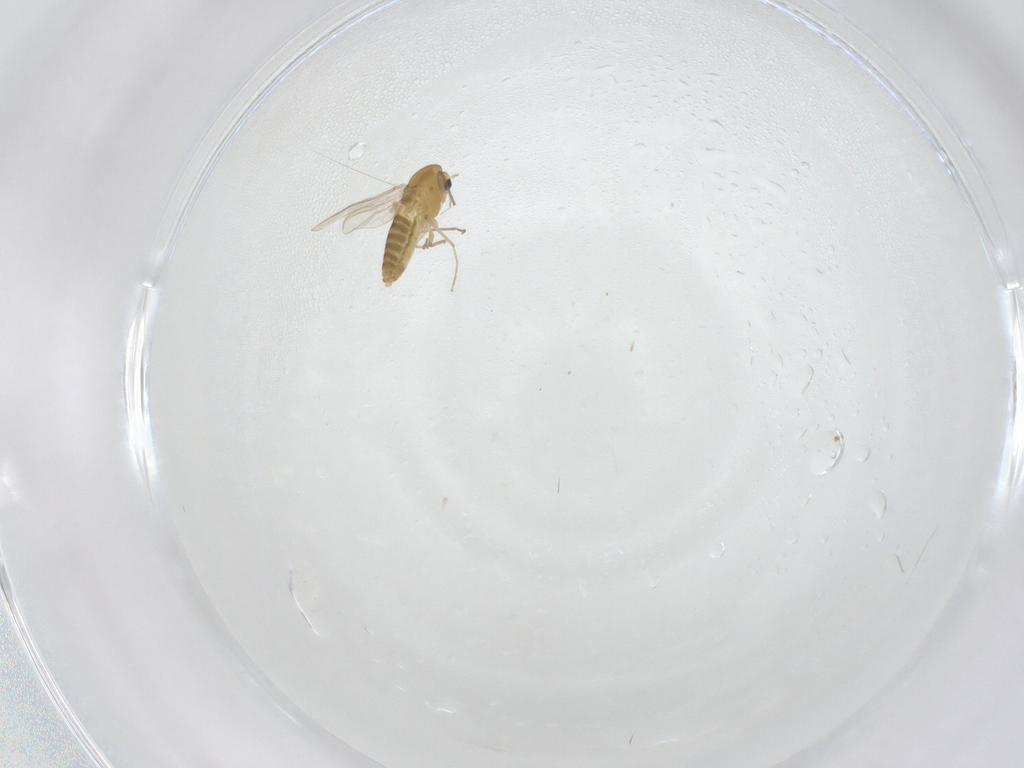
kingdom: Animalia
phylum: Arthropoda
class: Insecta
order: Diptera
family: Chironomidae
